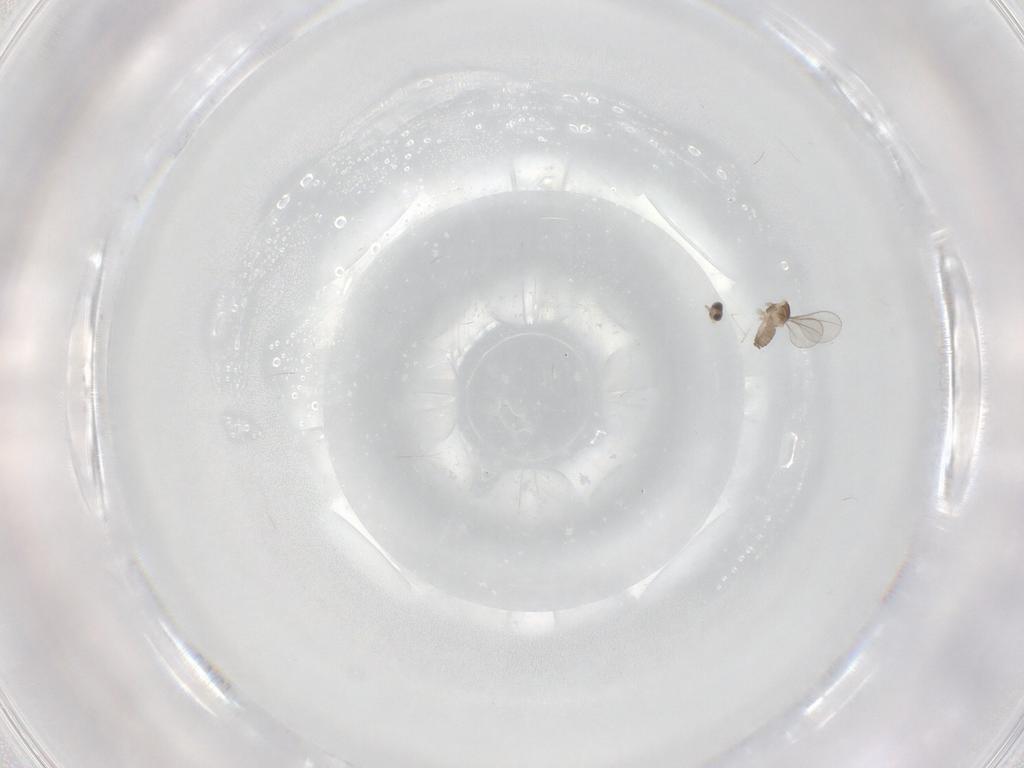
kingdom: Animalia
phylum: Arthropoda
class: Insecta
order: Diptera
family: Cecidomyiidae
